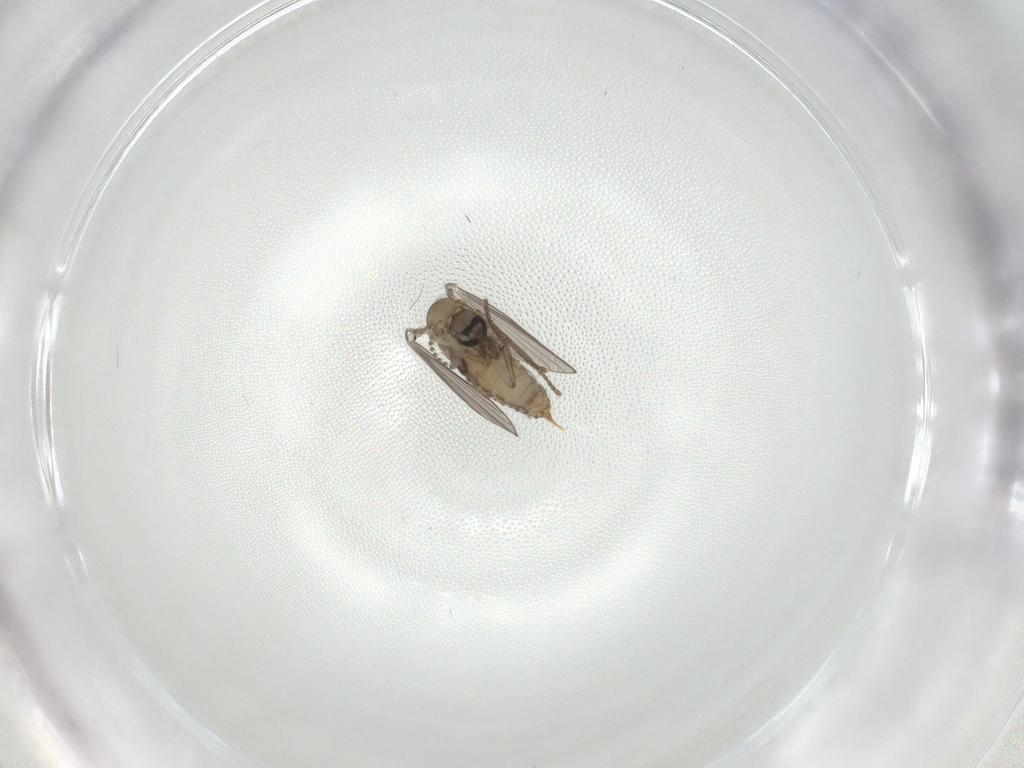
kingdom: Animalia
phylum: Arthropoda
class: Insecta
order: Diptera
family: Psychodidae
